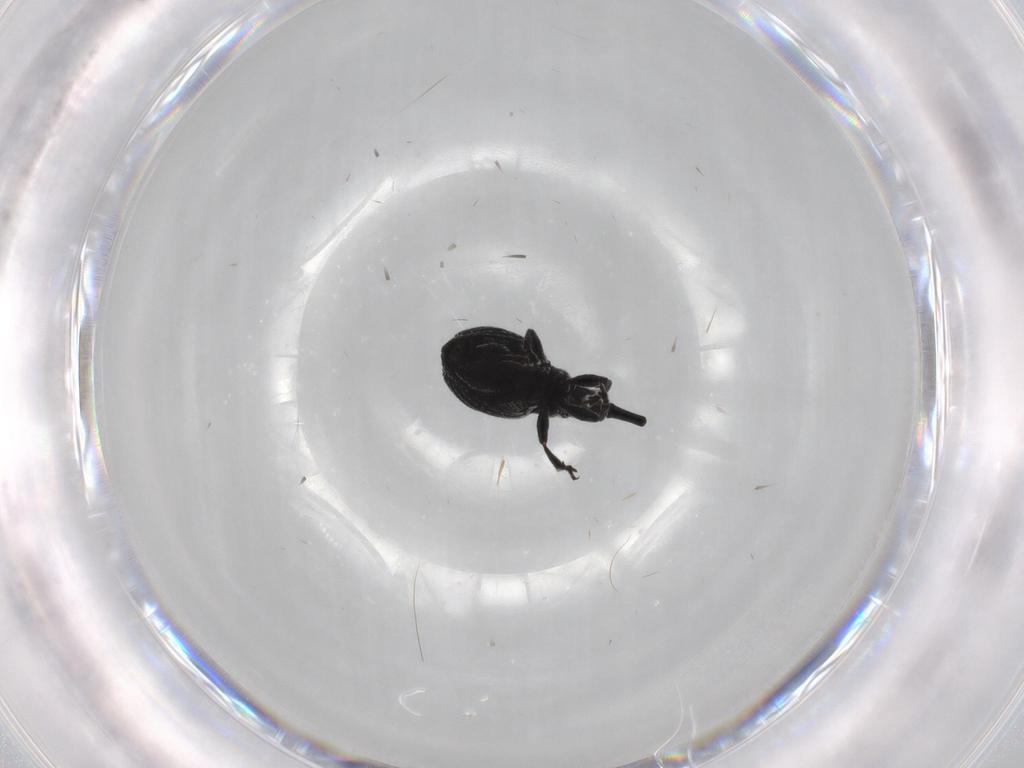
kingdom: Animalia
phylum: Arthropoda
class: Insecta
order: Coleoptera
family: Brentidae
